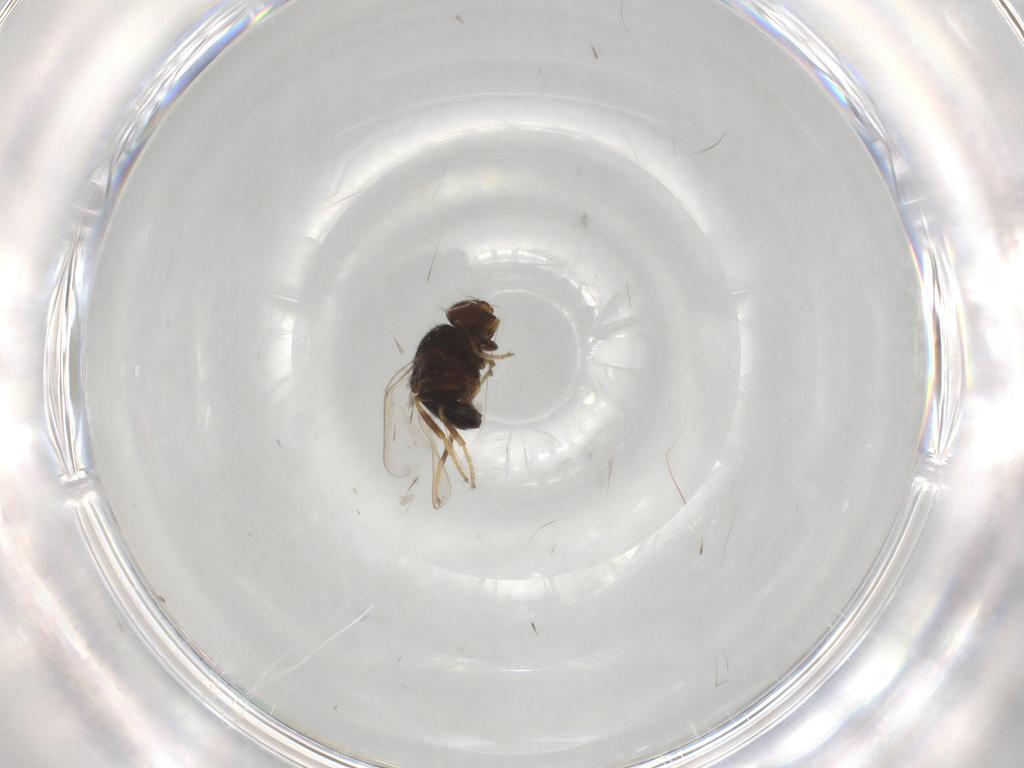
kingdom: Animalia
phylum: Arthropoda
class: Insecta
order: Diptera
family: Chloropidae
